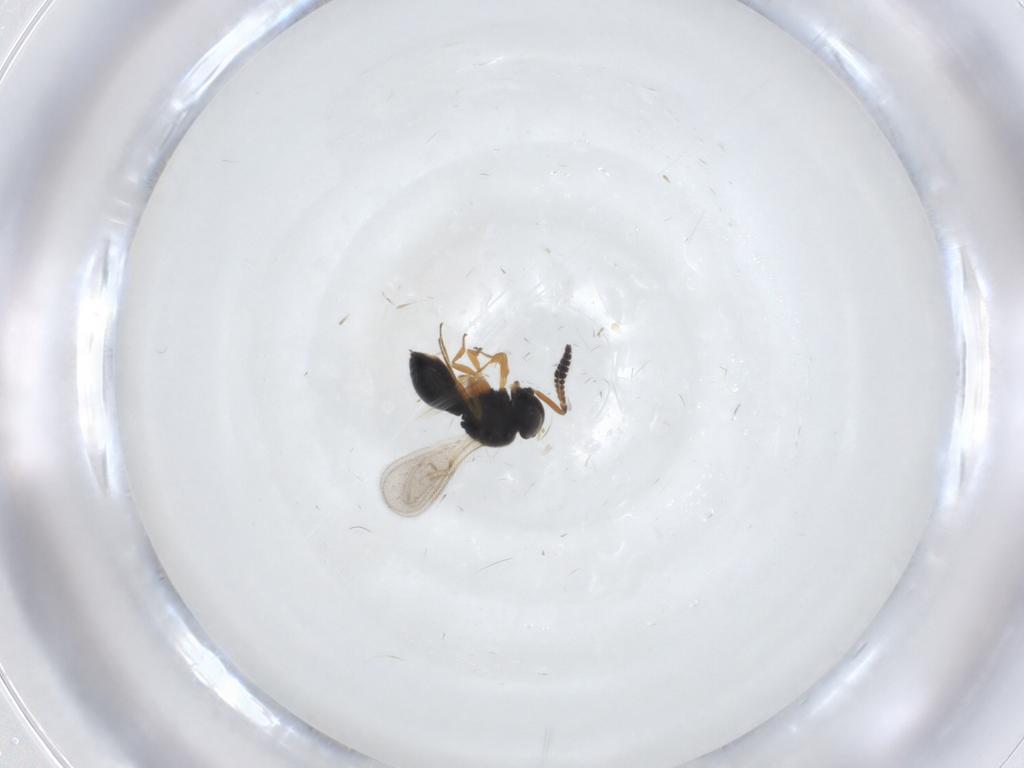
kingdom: Animalia
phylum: Arthropoda
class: Insecta
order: Hymenoptera
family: Scelionidae
